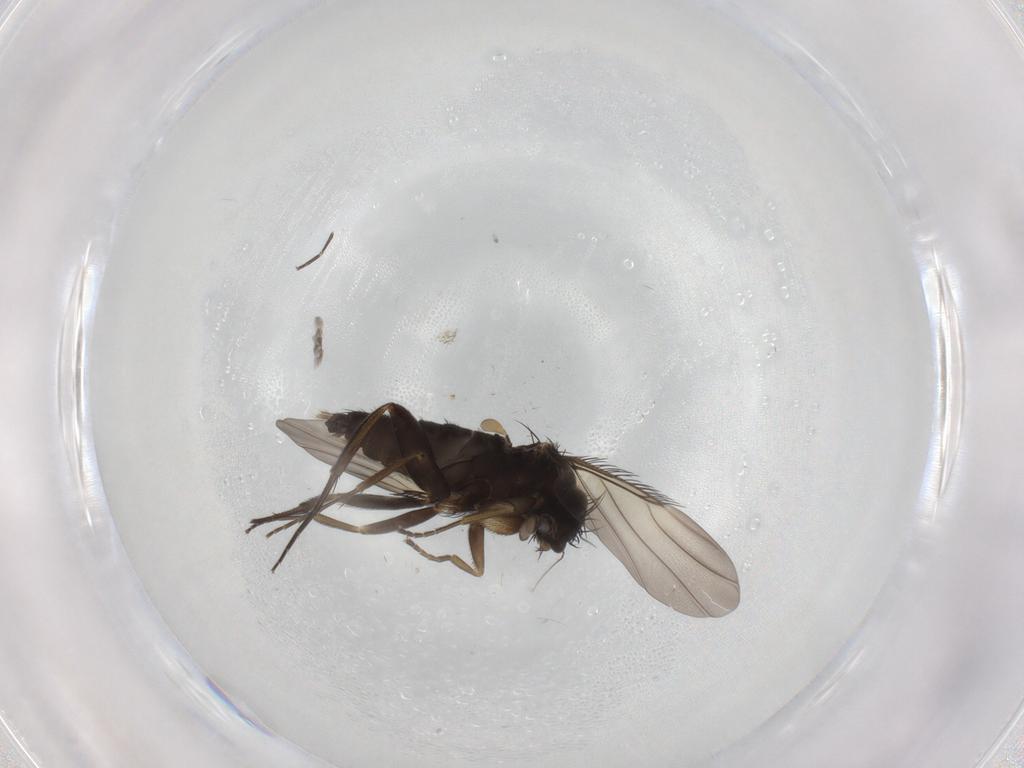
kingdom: Animalia
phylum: Arthropoda
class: Insecta
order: Diptera
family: Phoridae
